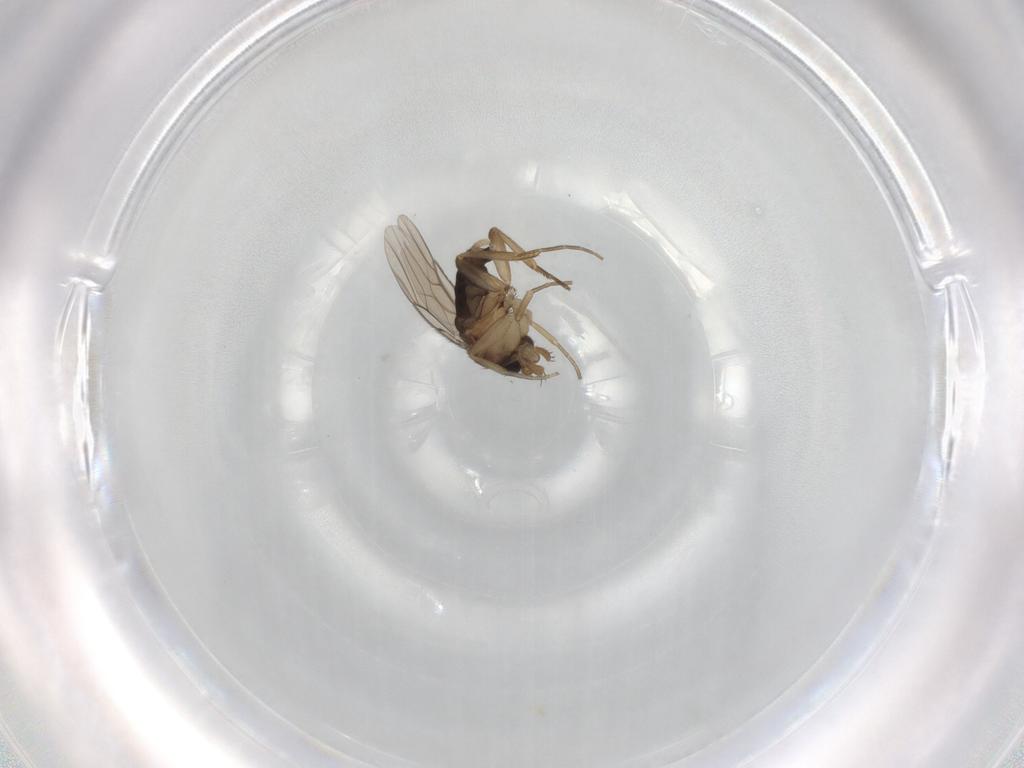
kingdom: Animalia
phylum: Arthropoda
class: Insecta
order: Diptera
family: Phoridae
